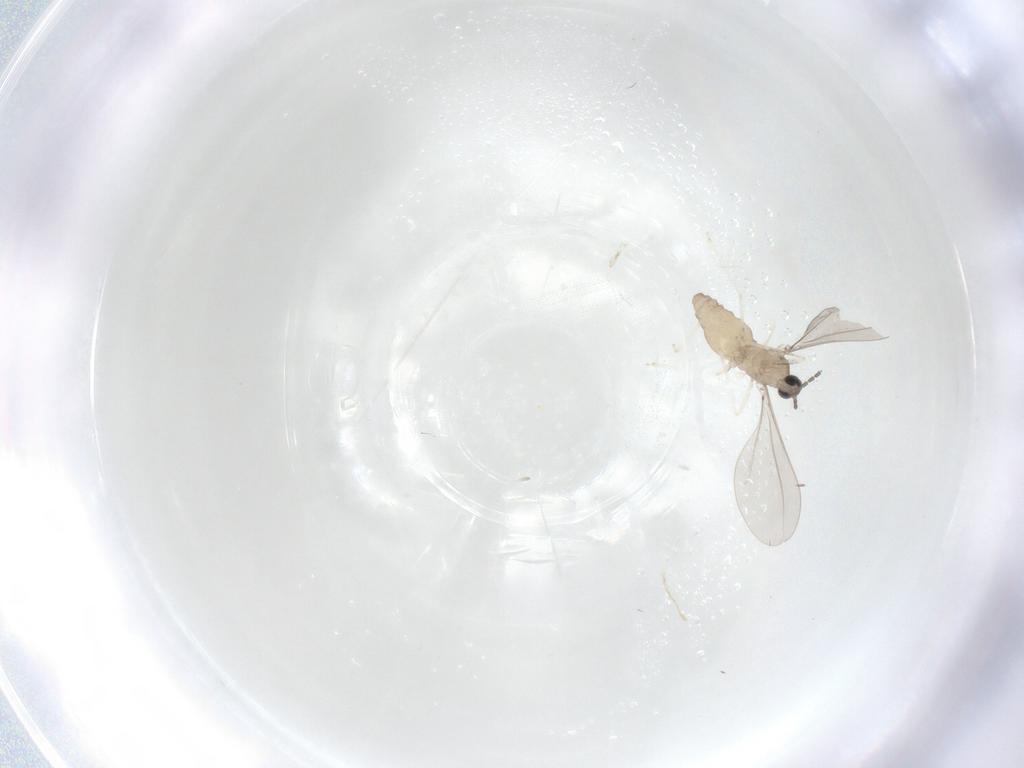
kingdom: Animalia
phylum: Arthropoda
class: Insecta
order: Diptera
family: Cecidomyiidae
